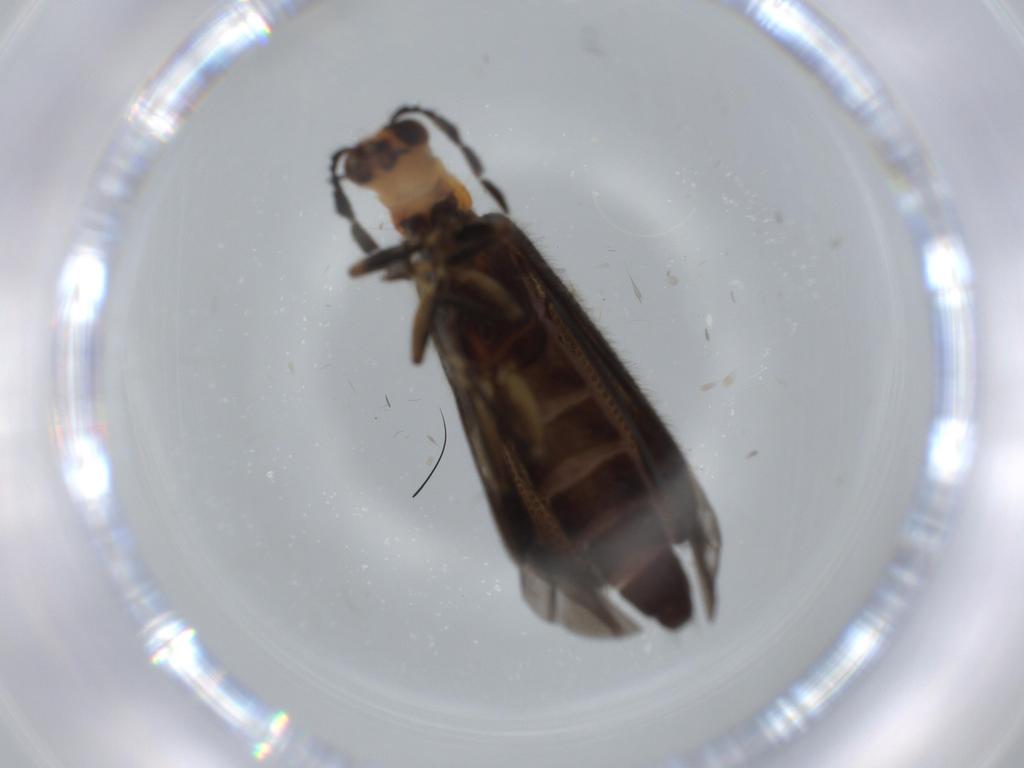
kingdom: Animalia
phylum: Arthropoda
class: Insecta
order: Coleoptera
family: Cleridae
